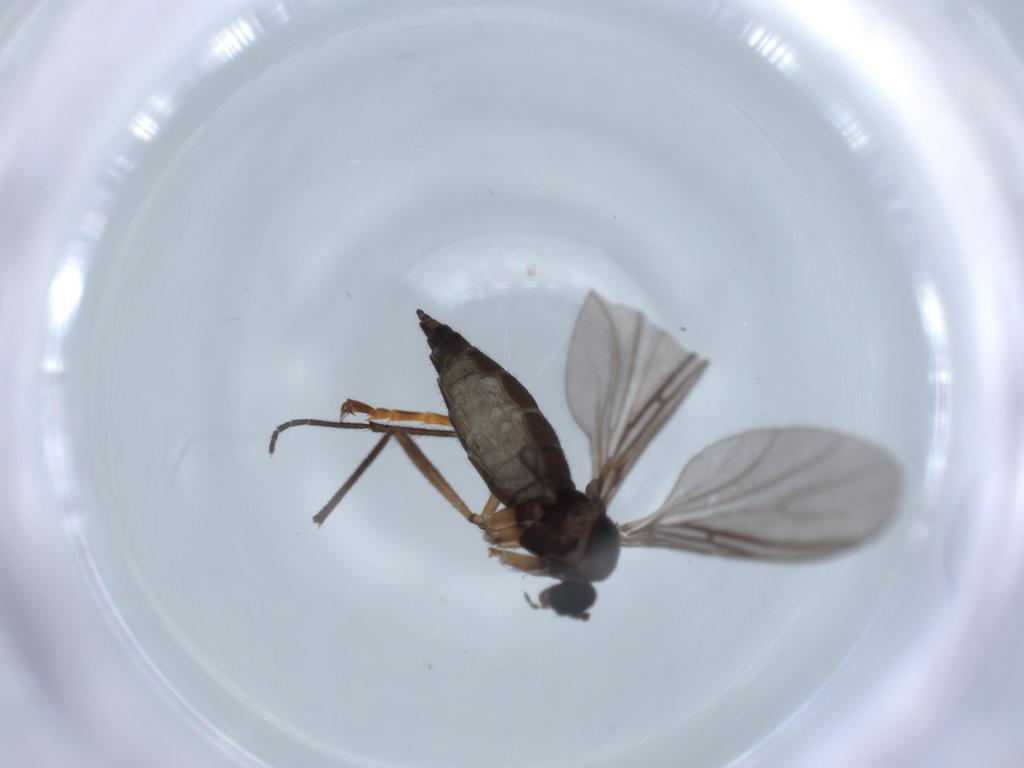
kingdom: Animalia
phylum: Arthropoda
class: Insecta
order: Diptera
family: Sciaridae
